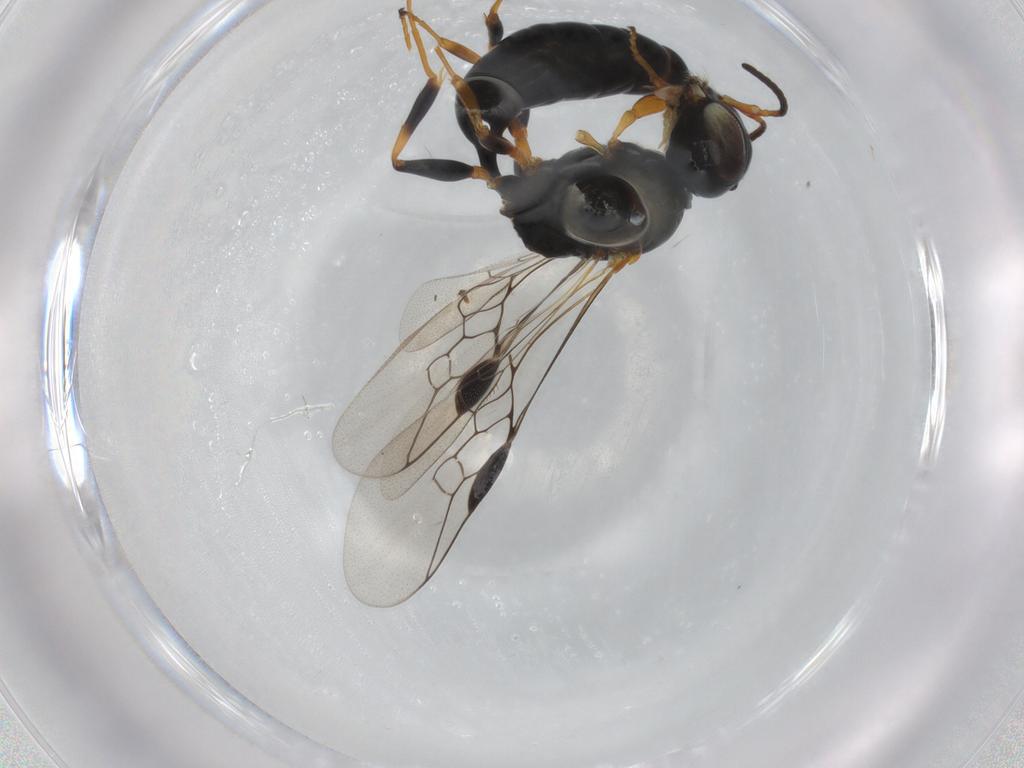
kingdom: Animalia
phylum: Arthropoda
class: Insecta
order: Hymenoptera
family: Pemphredonidae
